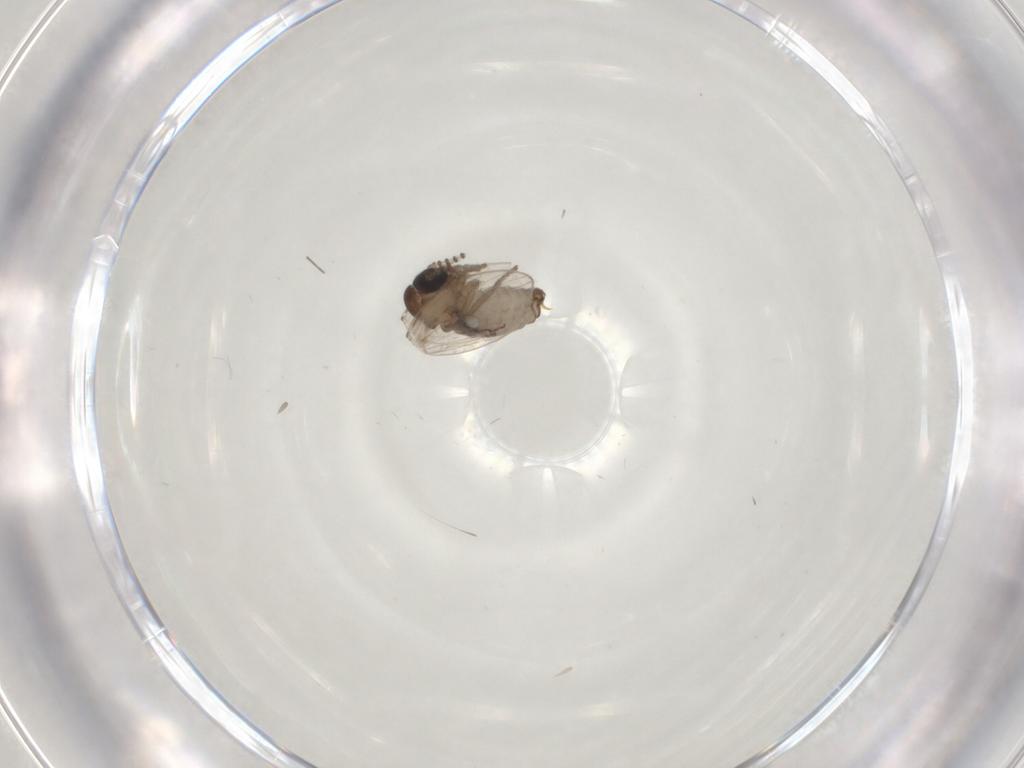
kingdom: Animalia
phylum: Arthropoda
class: Insecta
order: Diptera
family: Psychodidae
